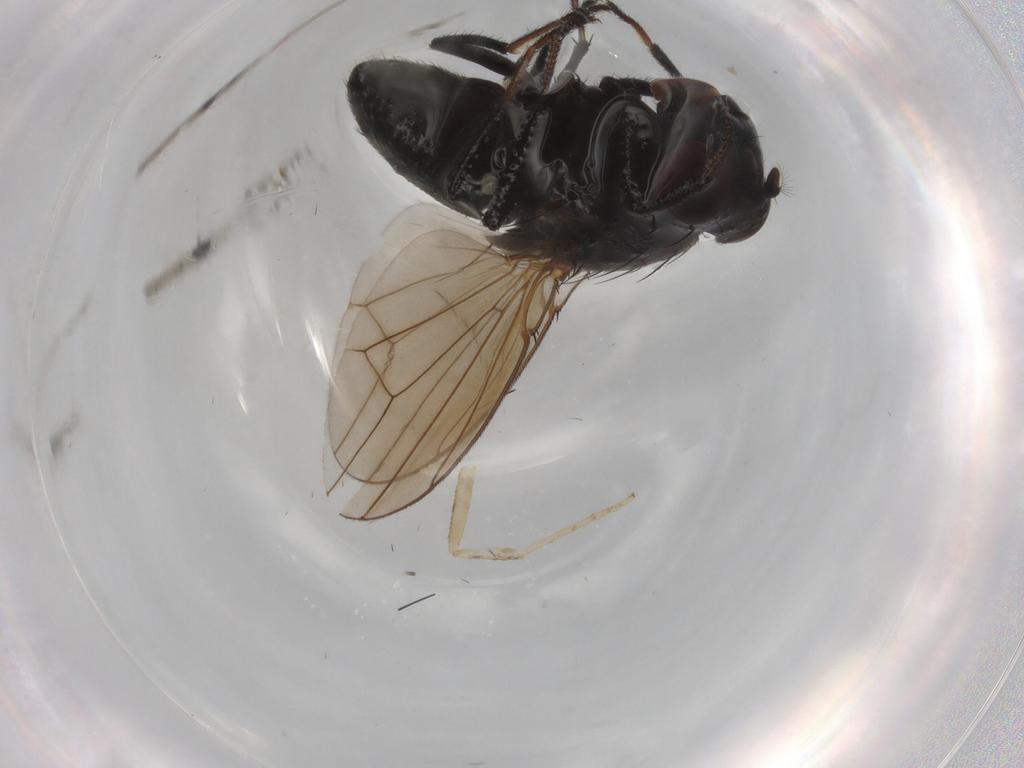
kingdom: Animalia
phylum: Arthropoda
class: Insecta
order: Diptera
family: Ephydridae
